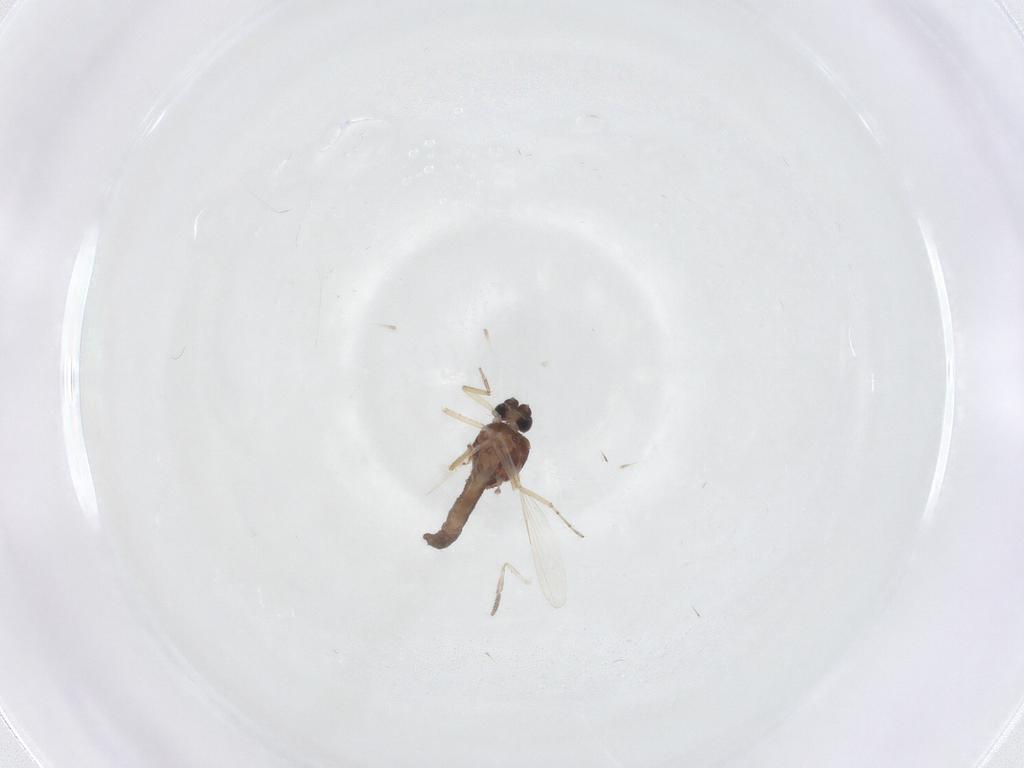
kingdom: Animalia
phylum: Arthropoda
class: Insecta
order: Diptera
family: Ceratopogonidae
